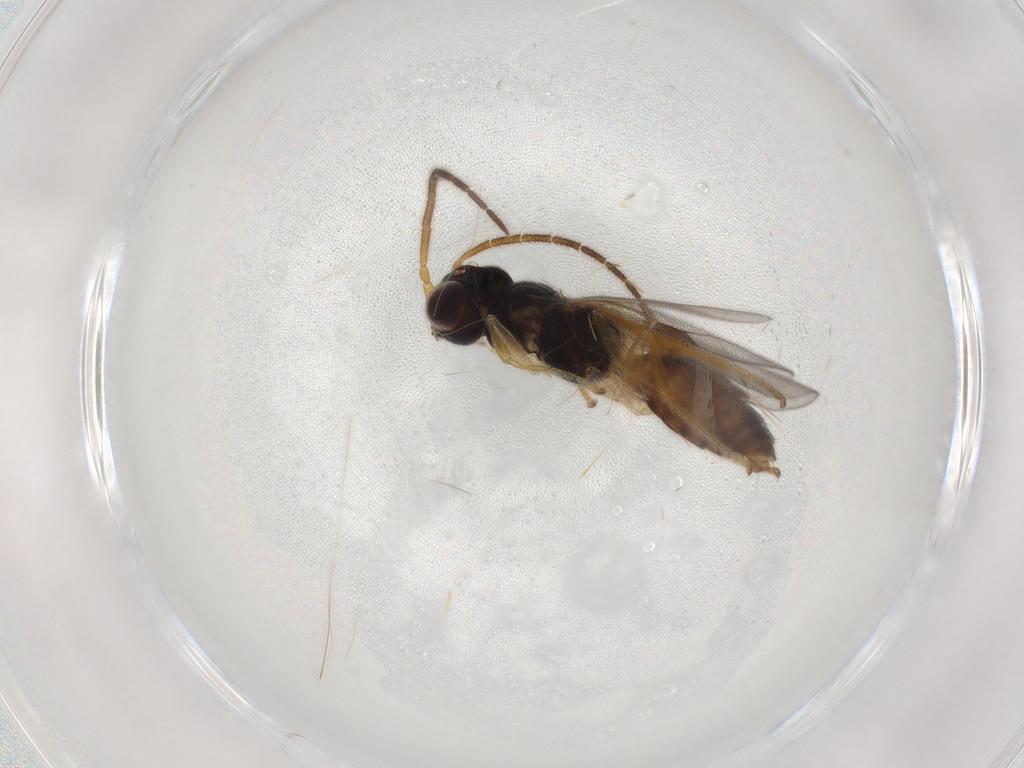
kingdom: Animalia
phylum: Arthropoda
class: Insecta
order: Hymenoptera
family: Dryinidae
